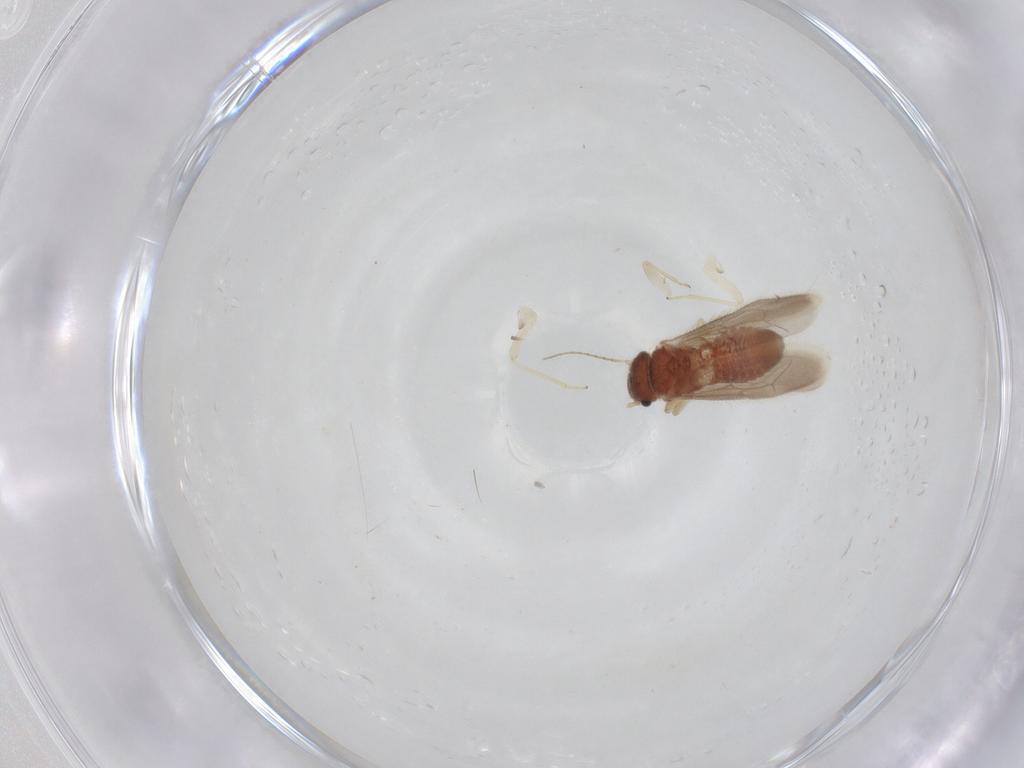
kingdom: Animalia
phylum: Arthropoda
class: Insecta
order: Psocodea
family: Archipsocidae
